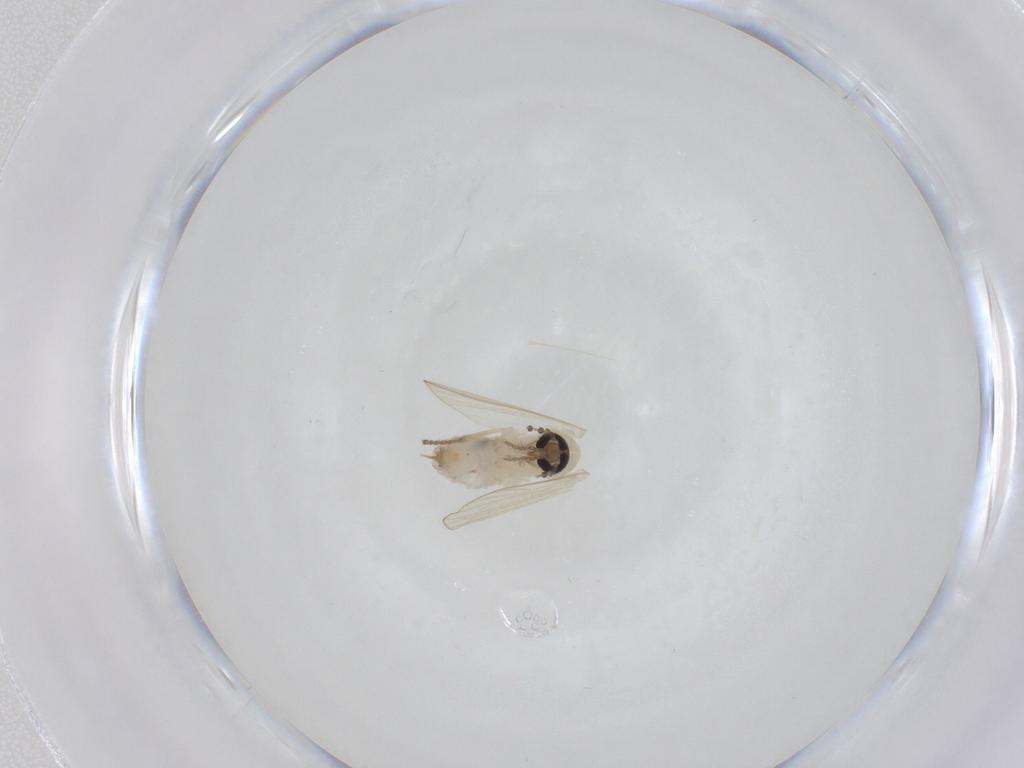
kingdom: Animalia
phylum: Arthropoda
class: Insecta
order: Diptera
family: Psychodidae
